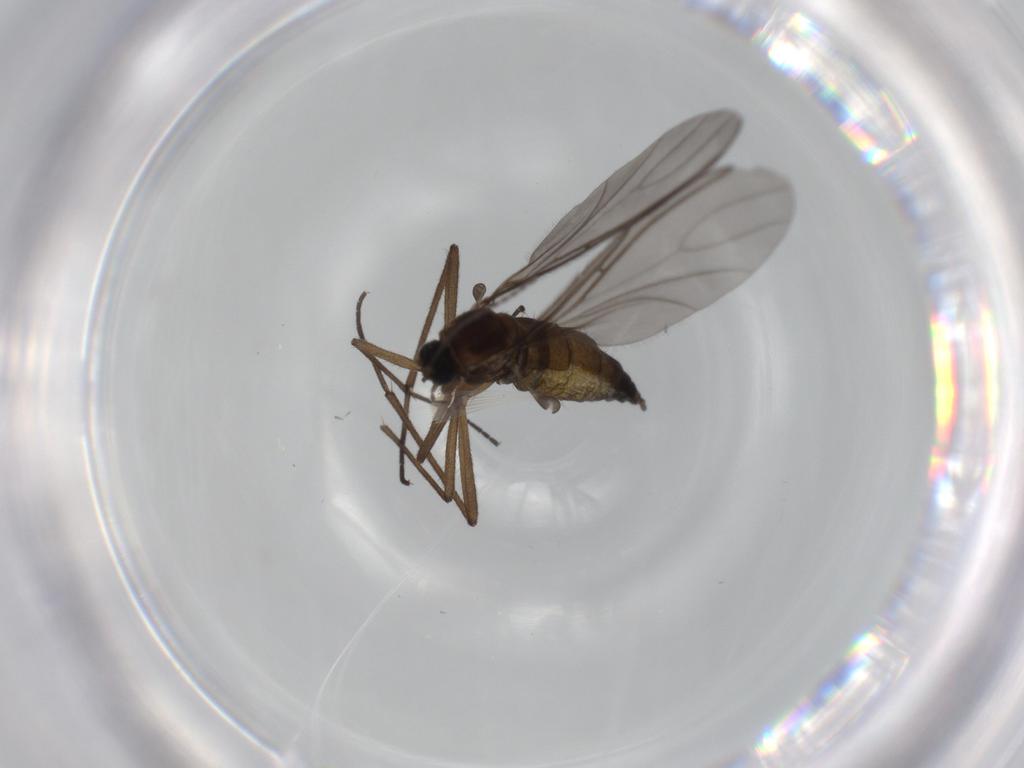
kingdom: Animalia
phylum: Arthropoda
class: Insecta
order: Diptera
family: Sciaridae
